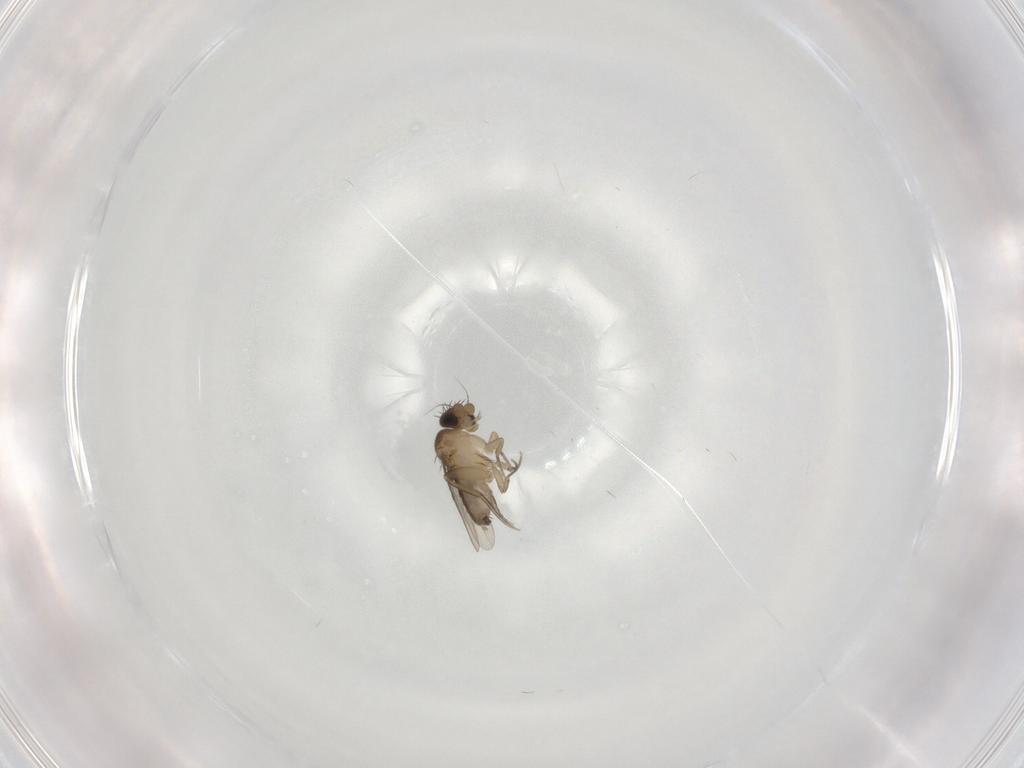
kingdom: Animalia
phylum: Arthropoda
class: Insecta
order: Diptera
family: Phoridae
